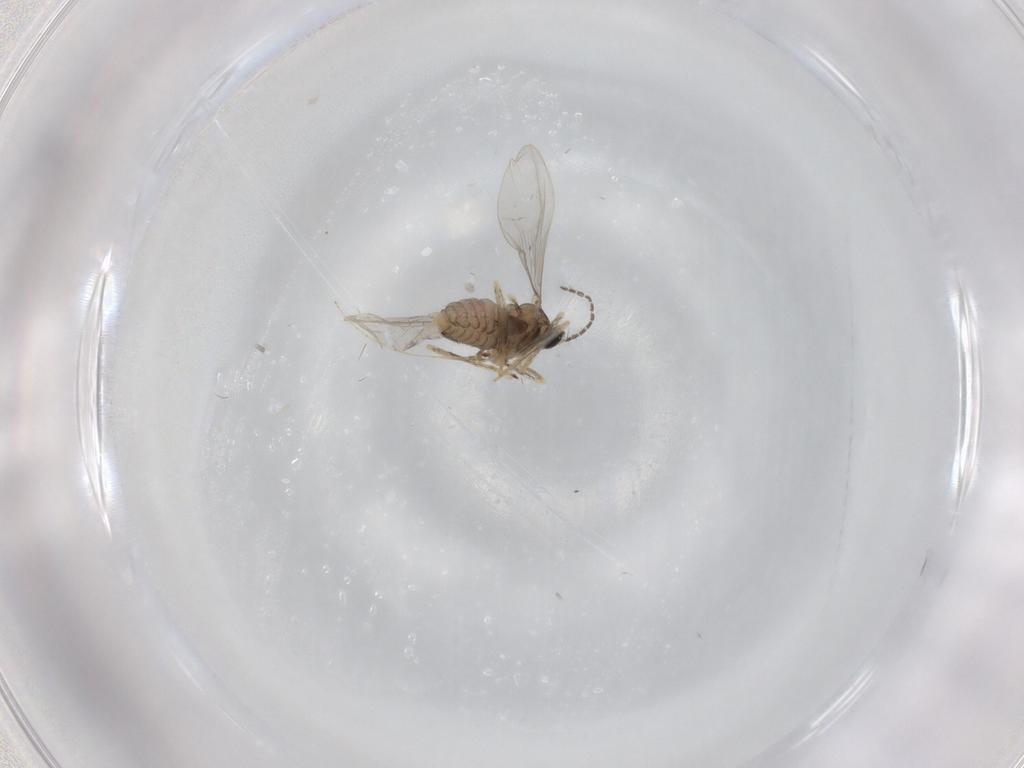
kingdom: Animalia
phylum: Arthropoda
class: Insecta
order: Diptera
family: Cecidomyiidae
